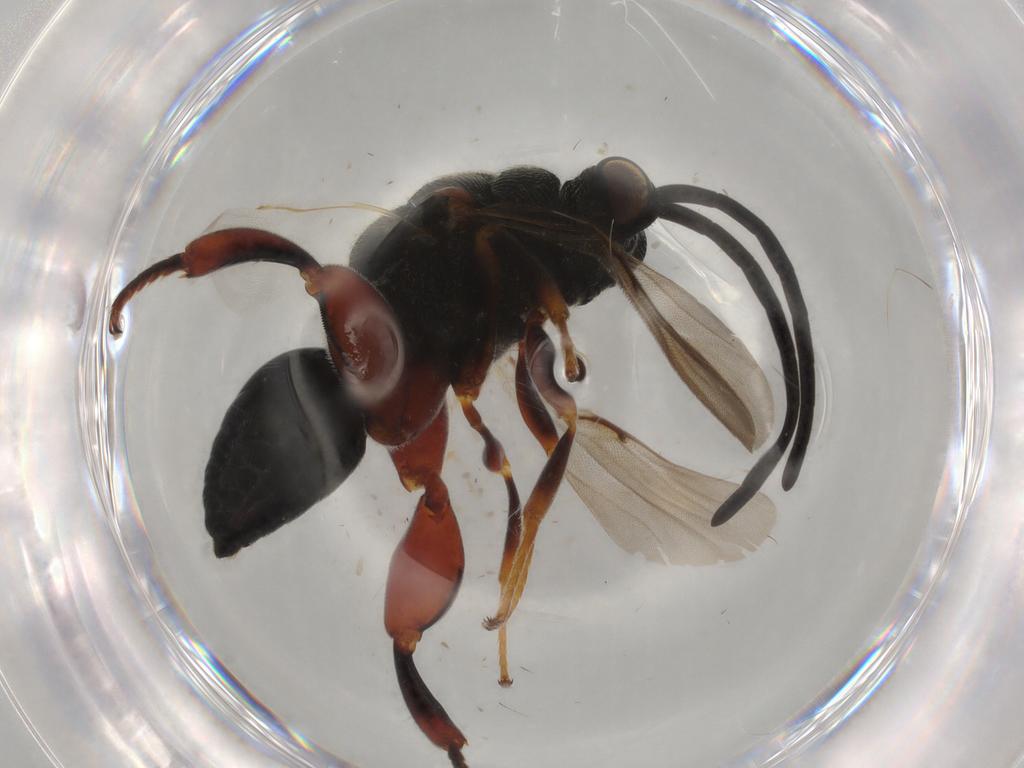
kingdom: Animalia
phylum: Arthropoda
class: Insecta
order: Hymenoptera
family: Chalcididae
